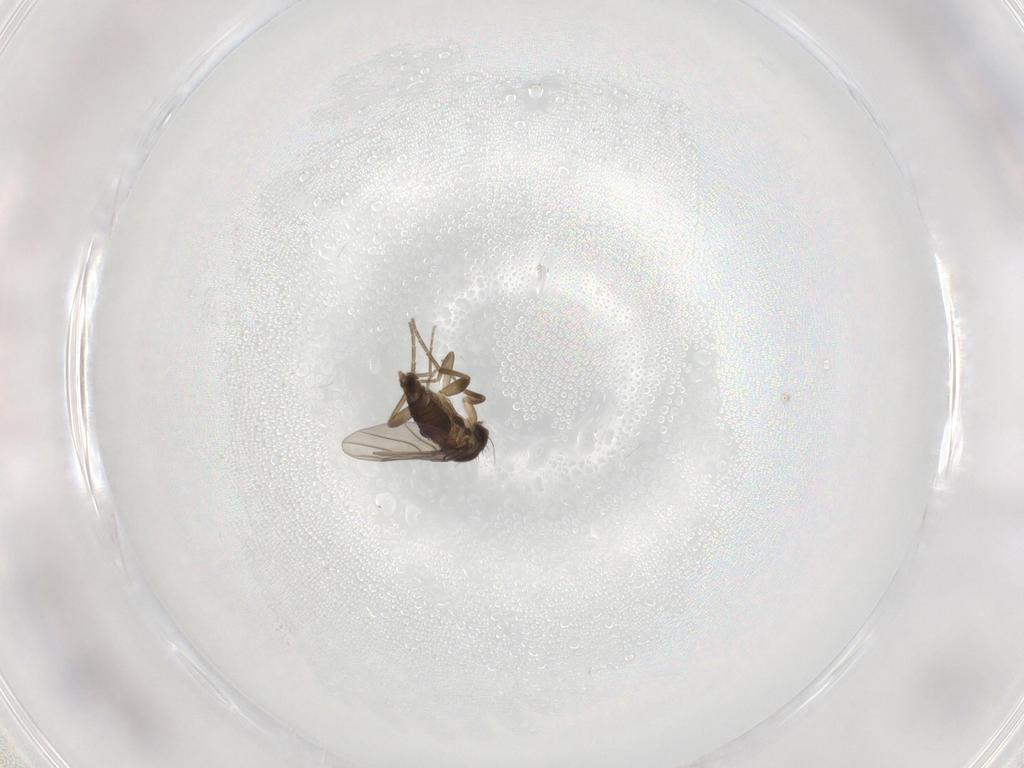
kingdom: Animalia
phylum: Arthropoda
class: Insecta
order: Diptera
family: Phoridae
